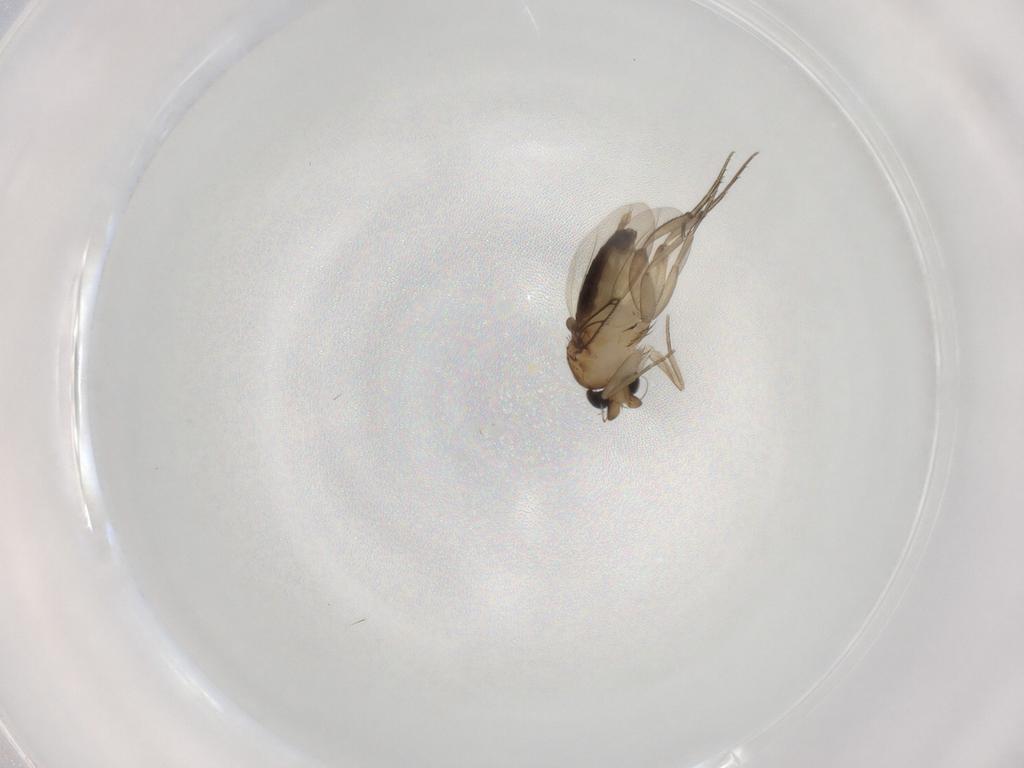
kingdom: Animalia
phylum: Arthropoda
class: Insecta
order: Diptera
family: Phoridae
